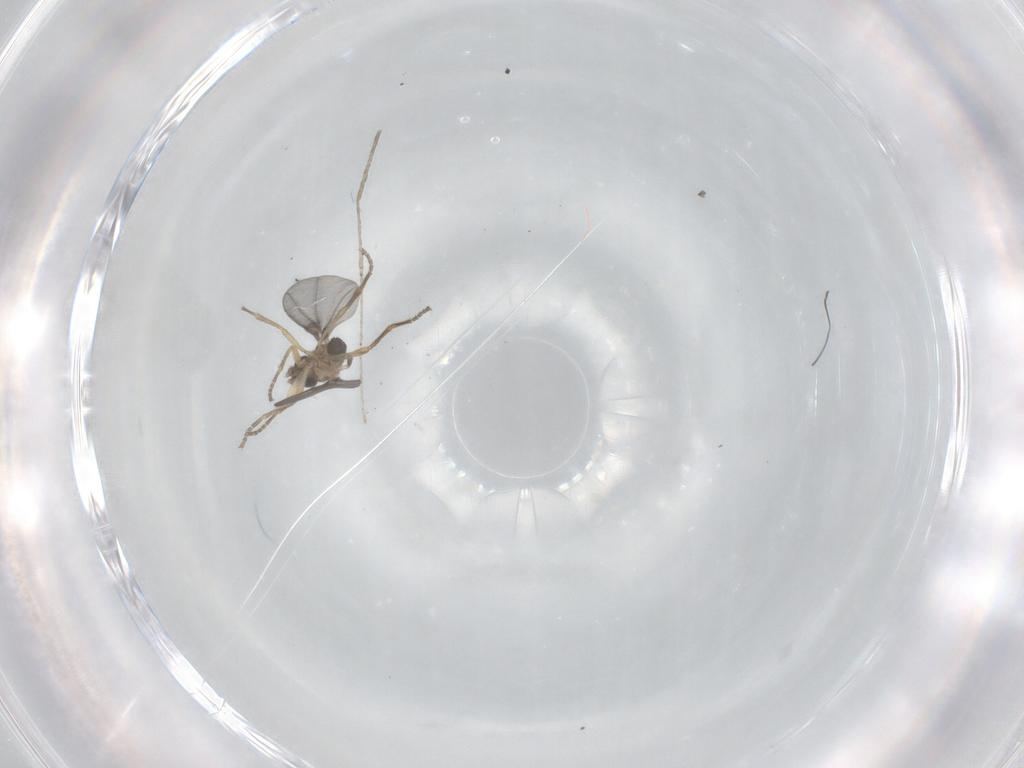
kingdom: Animalia
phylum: Arthropoda
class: Insecta
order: Diptera
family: Cecidomyiidae
